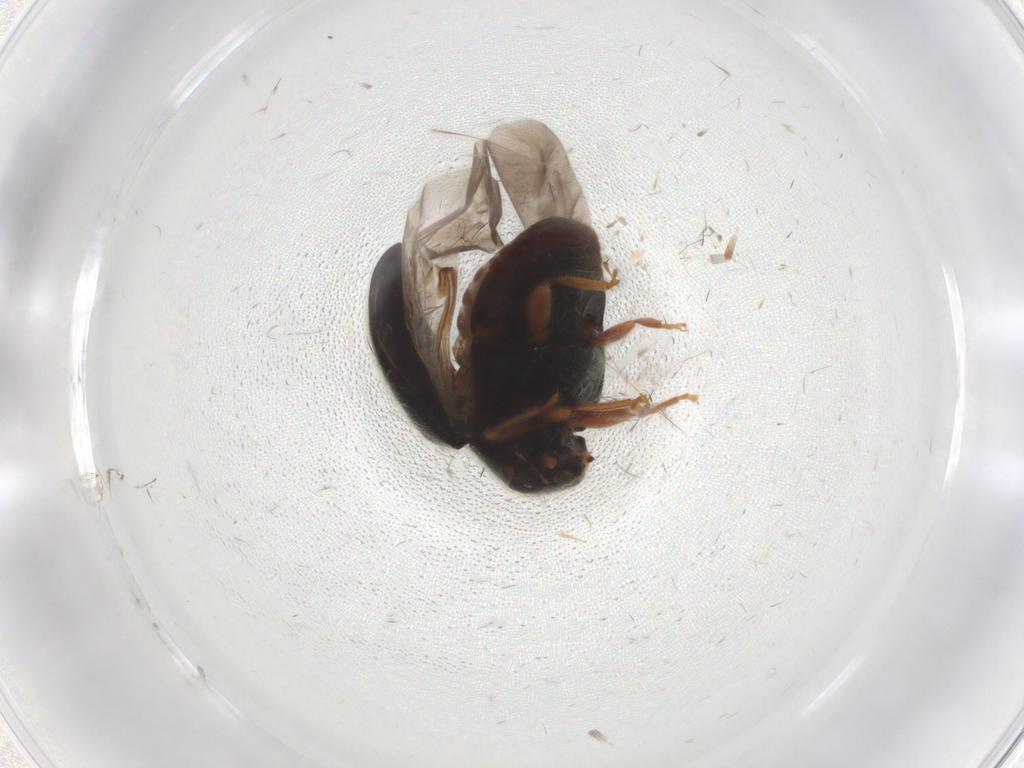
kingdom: Animalia
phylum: Arthropoda
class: Insecta
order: Coleoptera
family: Coccinellidae
